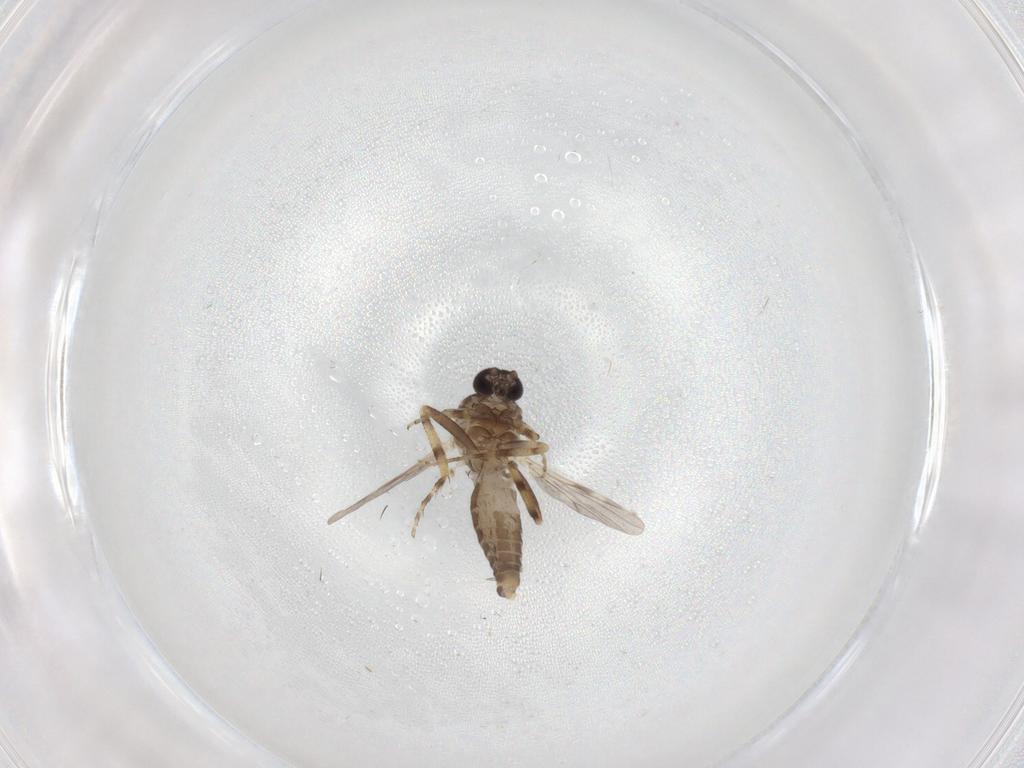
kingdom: Animalia
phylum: Arthropoda
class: Insecta
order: Diptera
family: Ceratopogonidae
